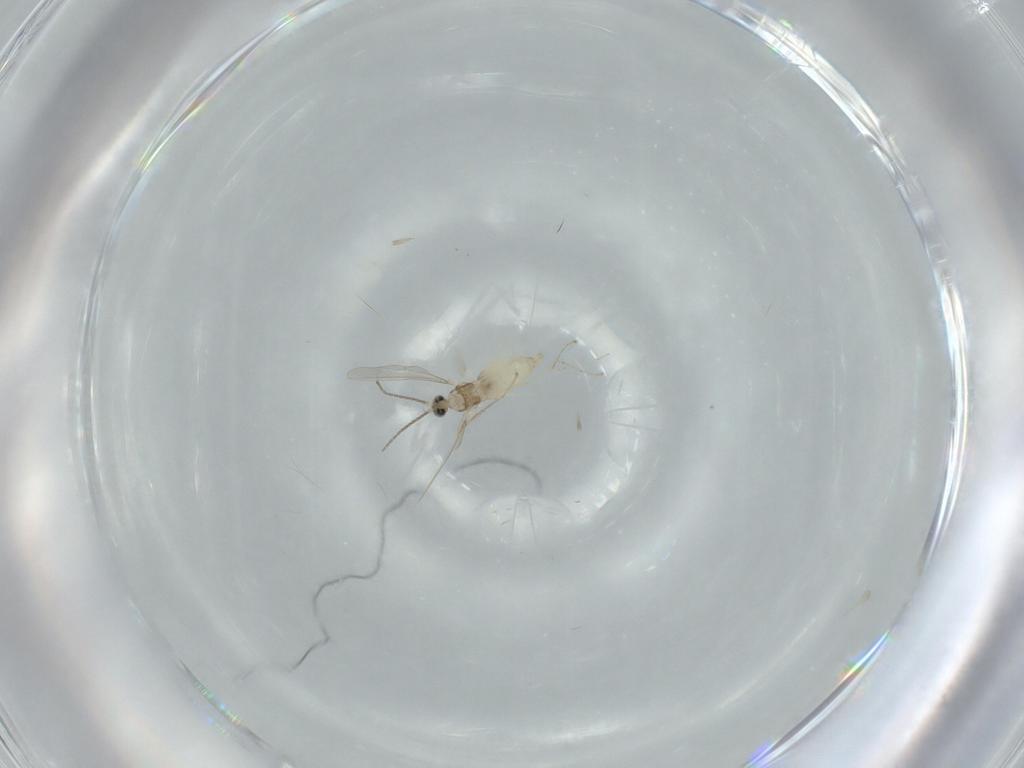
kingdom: Animalia
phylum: Arthropoda
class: Insecta
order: Diptera
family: Cecidomyiidae
